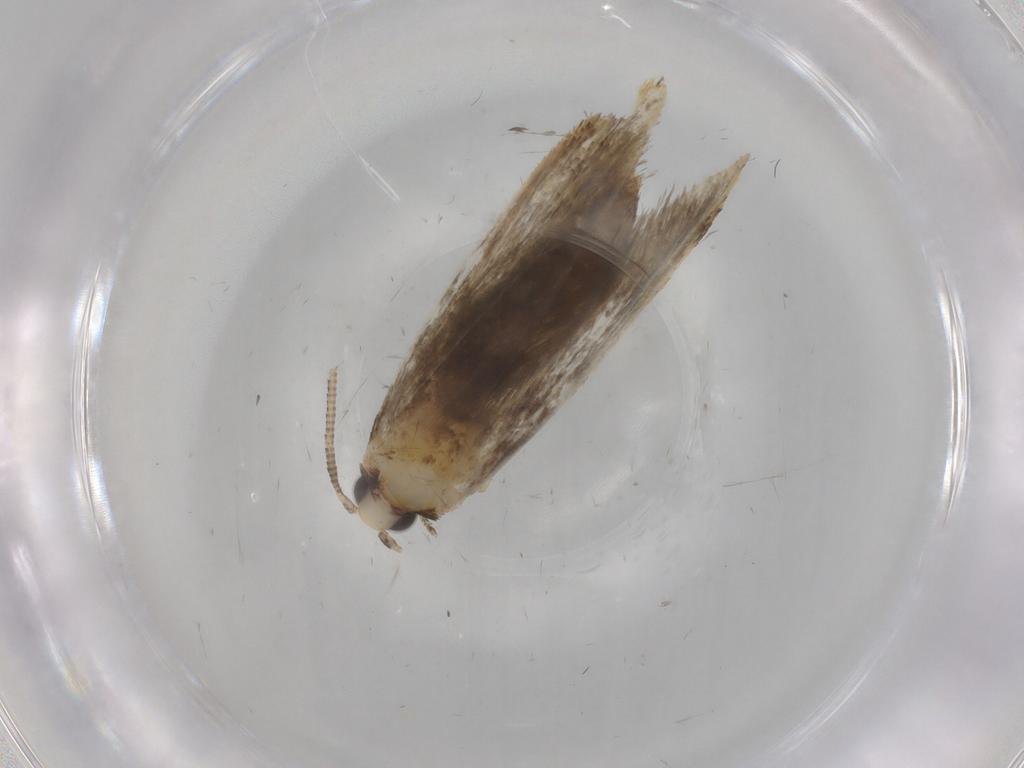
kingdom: Animalia
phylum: Arthropoda
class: Insecta
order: Lepidoptera
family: Tineidae
